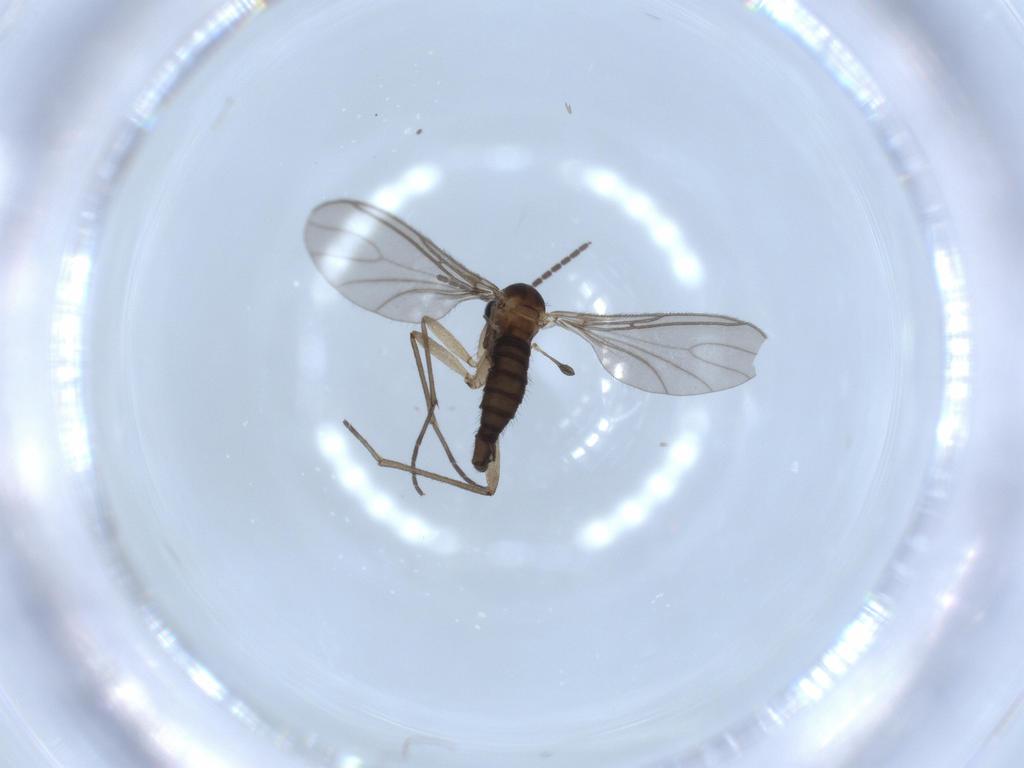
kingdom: Animalia
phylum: Arthropoda
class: Insecta
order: Diptera
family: Sciaridae
